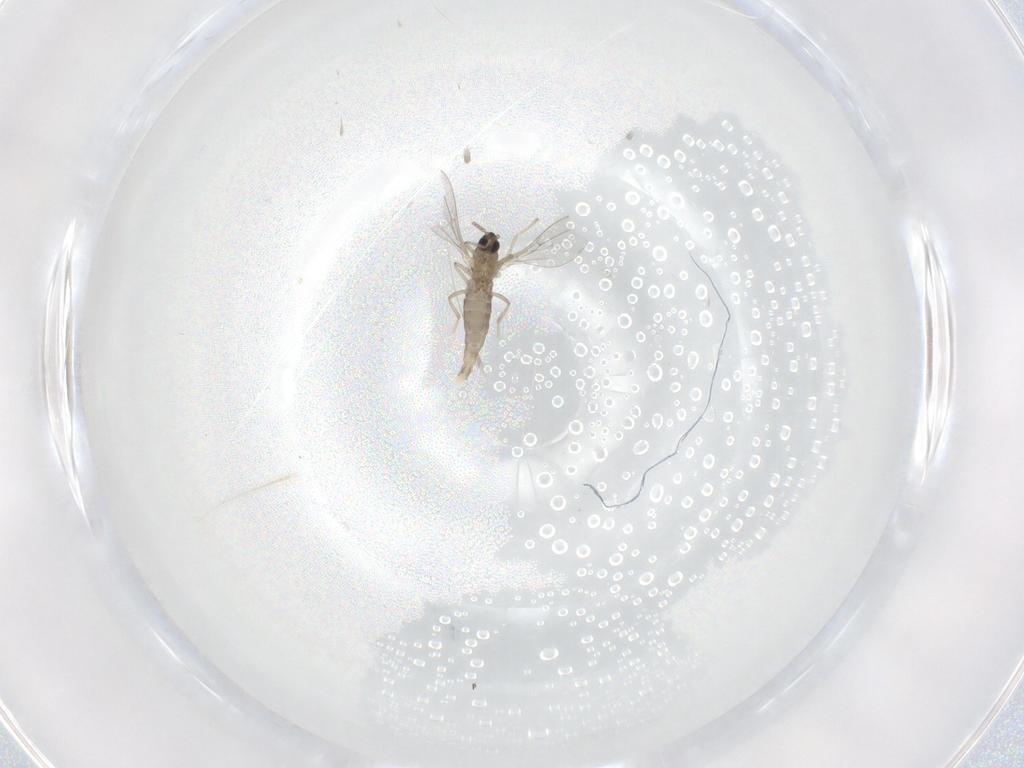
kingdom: Animalia
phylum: Arthropoda
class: Insecta
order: Diptera
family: Cecidomyiidae
